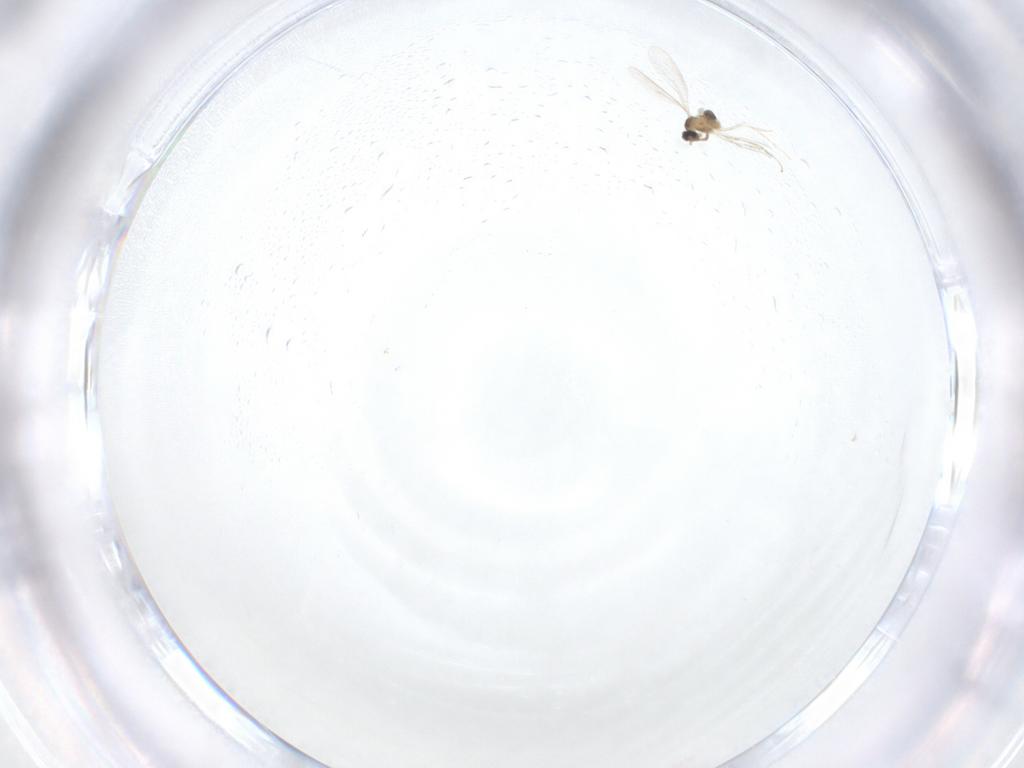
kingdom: Animalia
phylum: Arthropoda
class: Insecta
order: Diptera
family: Cecidomyiidae
